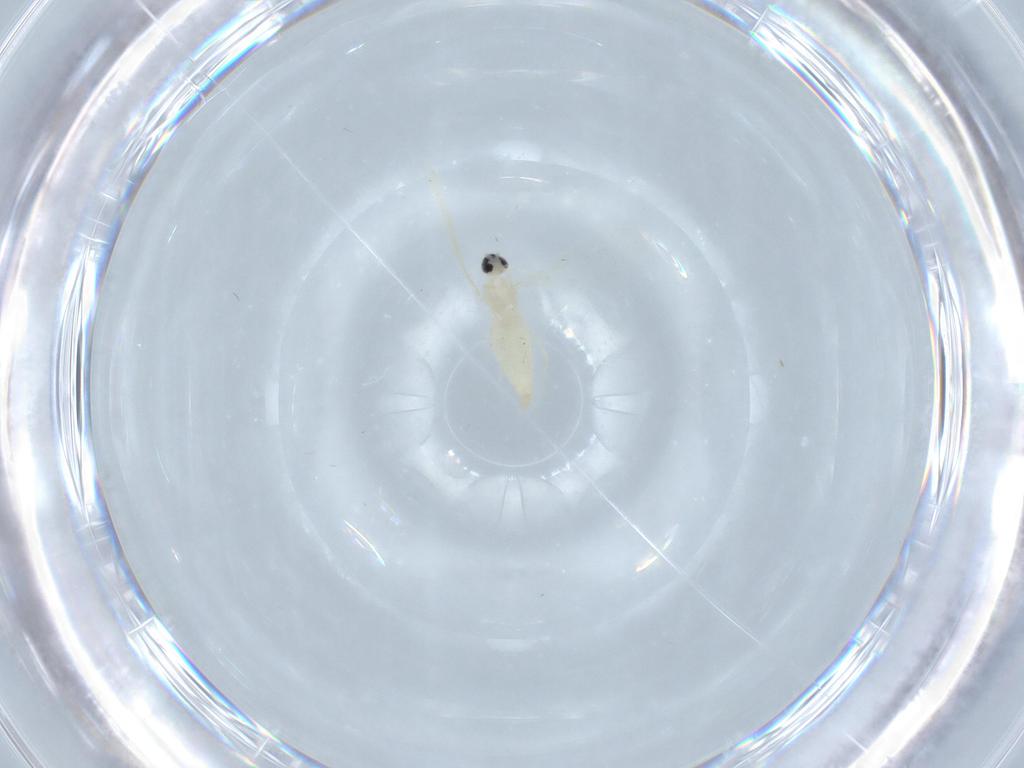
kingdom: Animalia
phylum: Arthropoda
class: Insecta
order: Diptera
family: Cecidomyiidae
